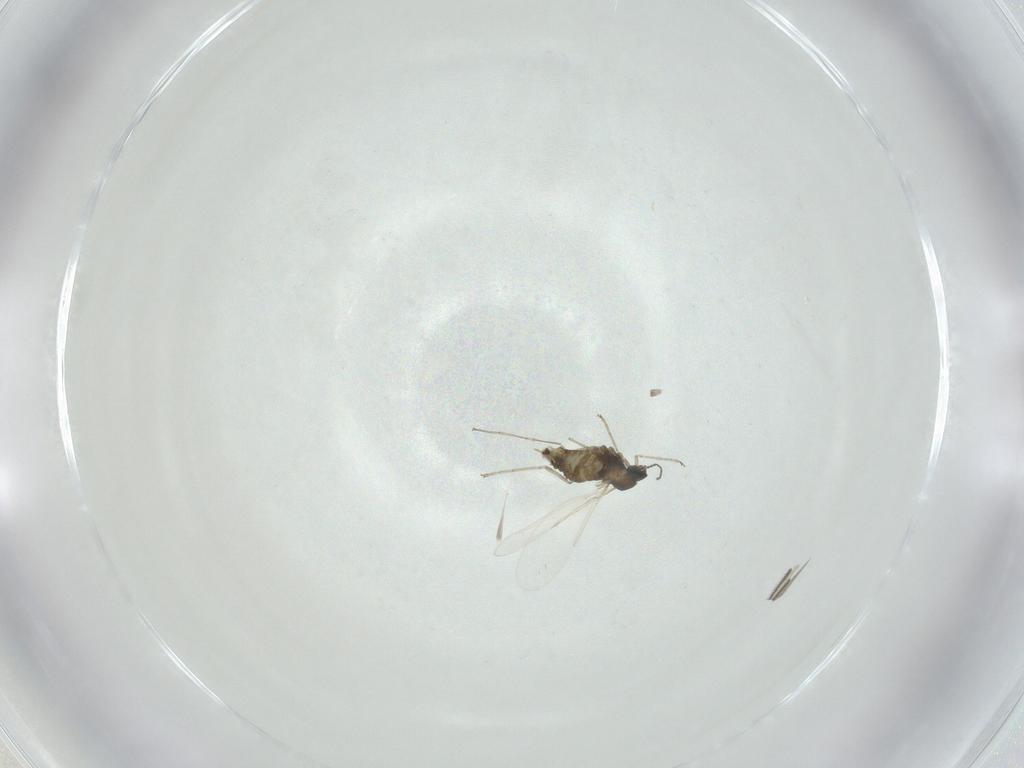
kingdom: Animalia
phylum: Arthropoda
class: Insecta
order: Diptera
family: Cecidomyiidae
